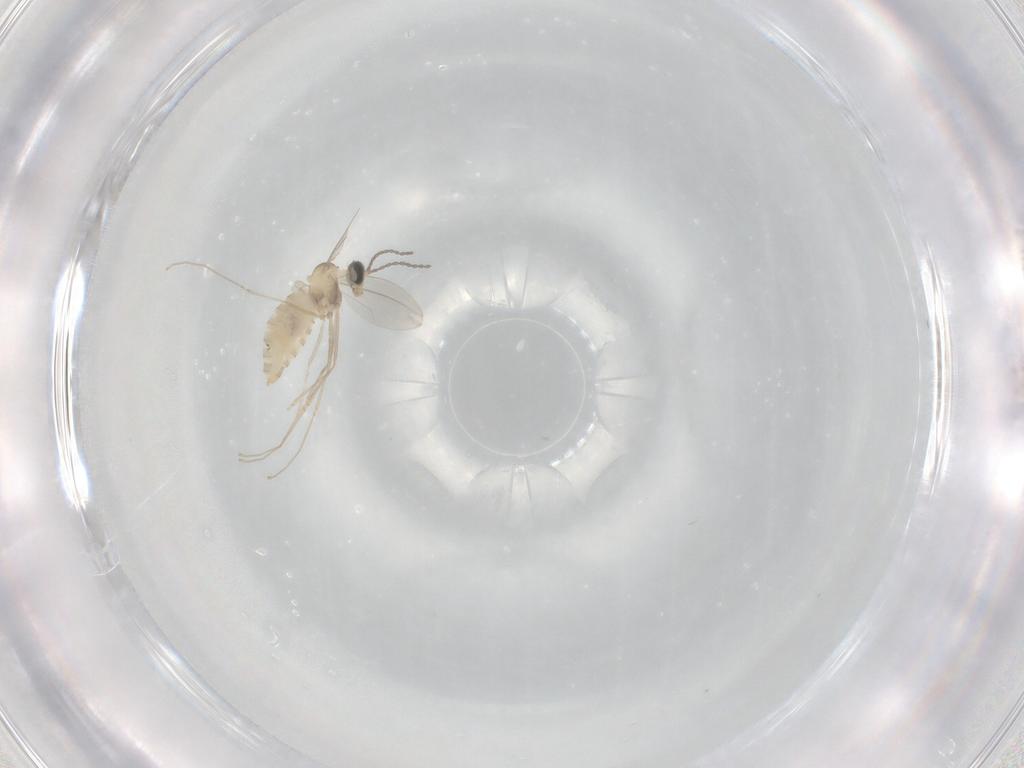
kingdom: Animalia
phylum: Arthropoda
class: Insecta
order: Diptera
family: Cecidomyiidae
